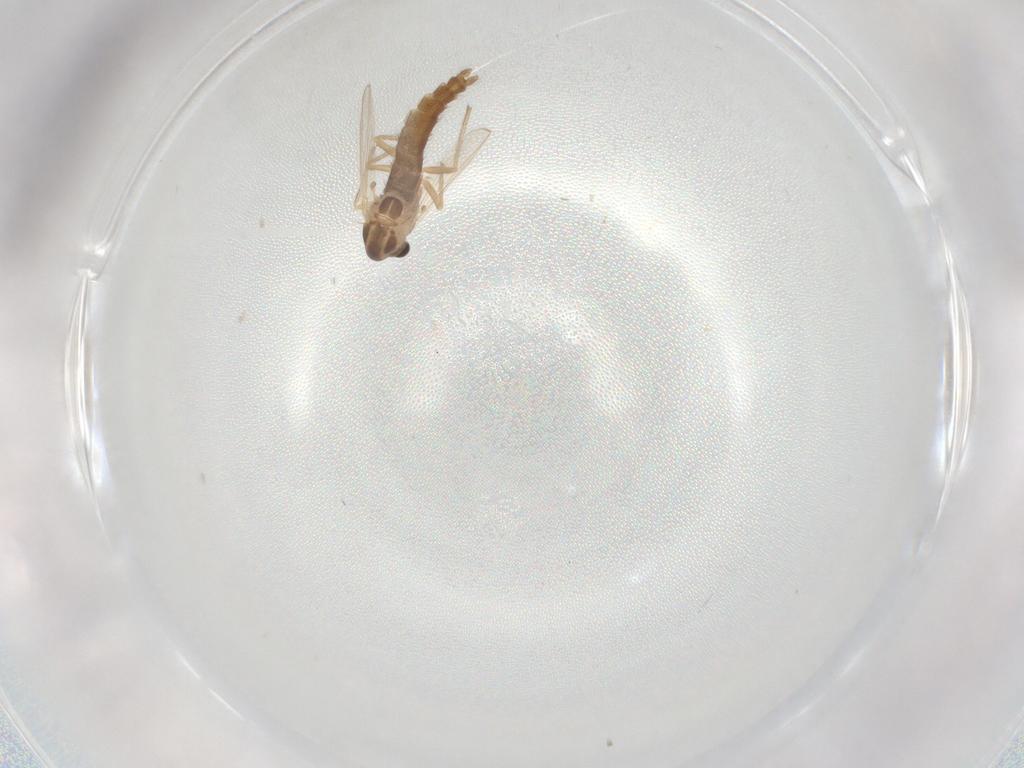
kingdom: Animalia
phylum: Arthropoda
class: Insecta
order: Diptera
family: Chironomidae
